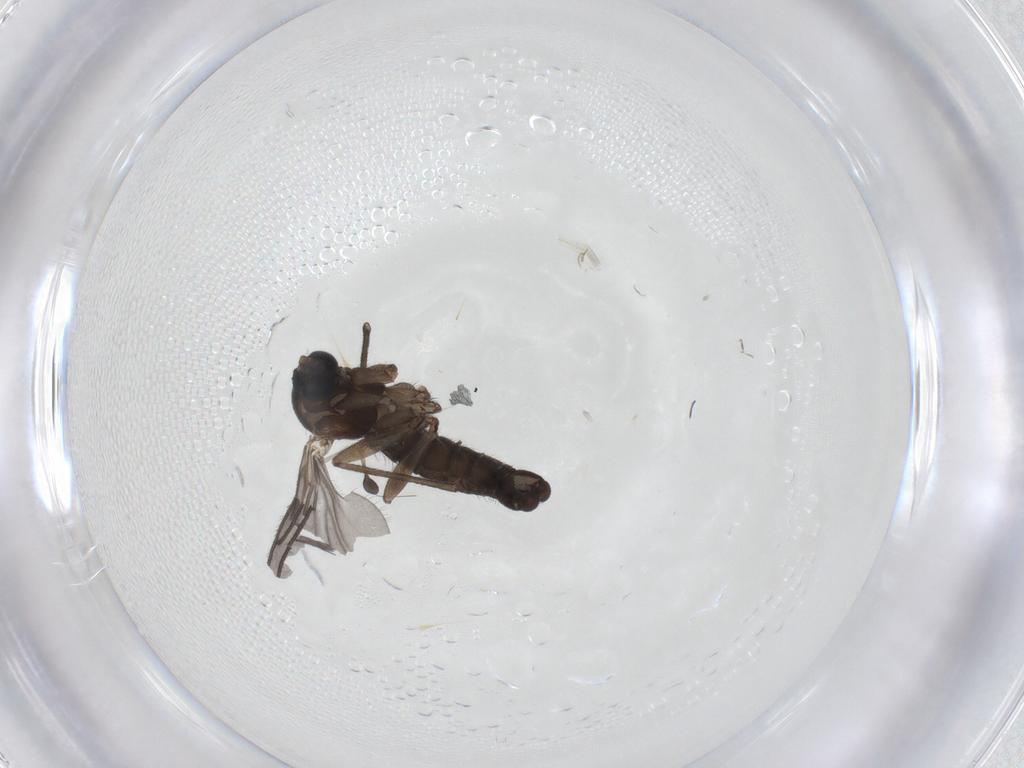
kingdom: Animalia
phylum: Arthropoda
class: Insecta
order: Diptera
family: Sciaridae
